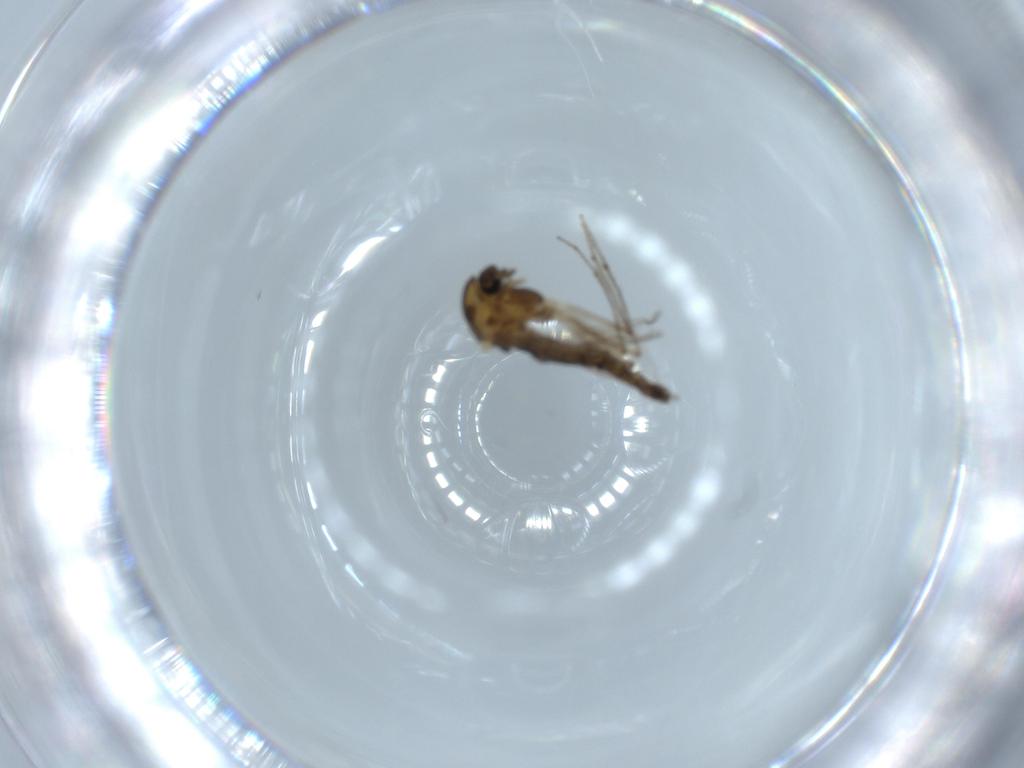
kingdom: Animalia
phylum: Arthropoda
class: Insecta
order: Diptera
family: Chironomidae
